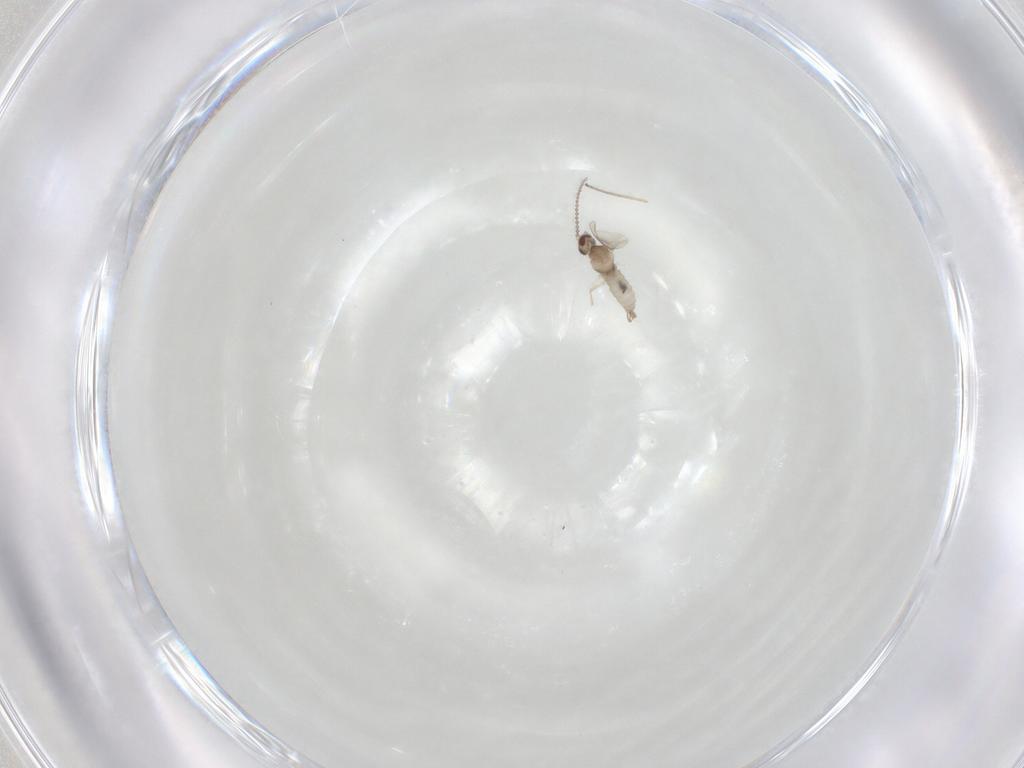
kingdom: Animalia
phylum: Arthropoda
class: Insecta
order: Diptera
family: Cecidomyiidae
